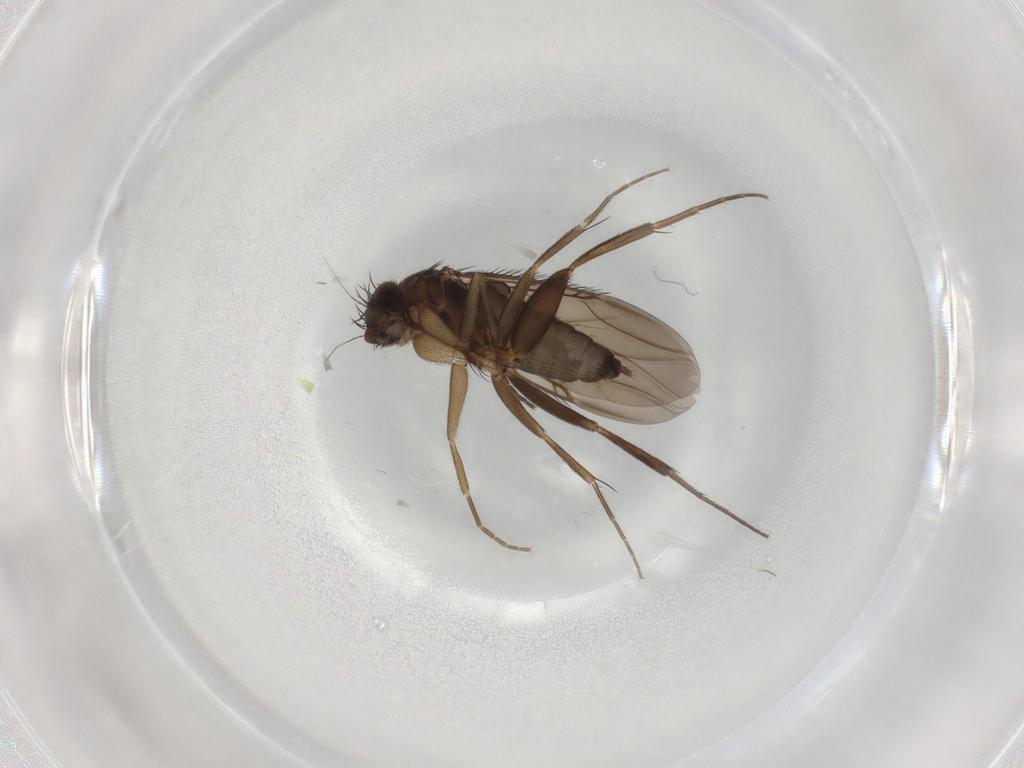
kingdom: Animalia
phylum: Arthropoda
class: Insecta
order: Diptera
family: Phoridae
